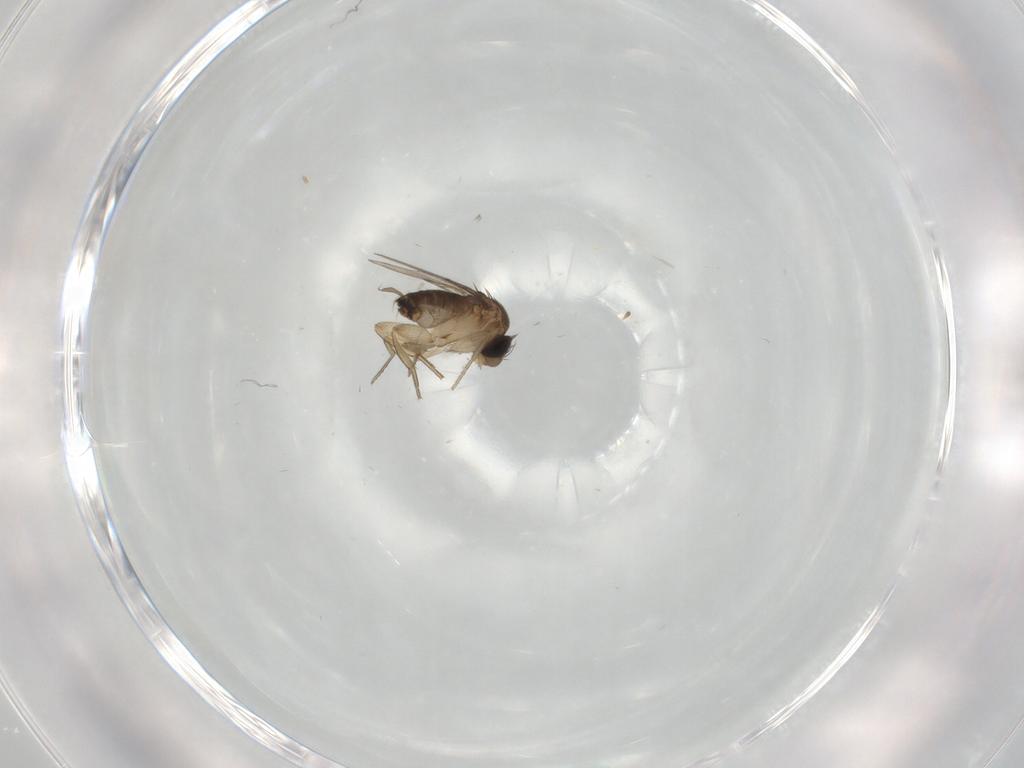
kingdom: Animalia
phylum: Arthropoda
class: Insecta
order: Diptera
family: Cecidomyiidae
